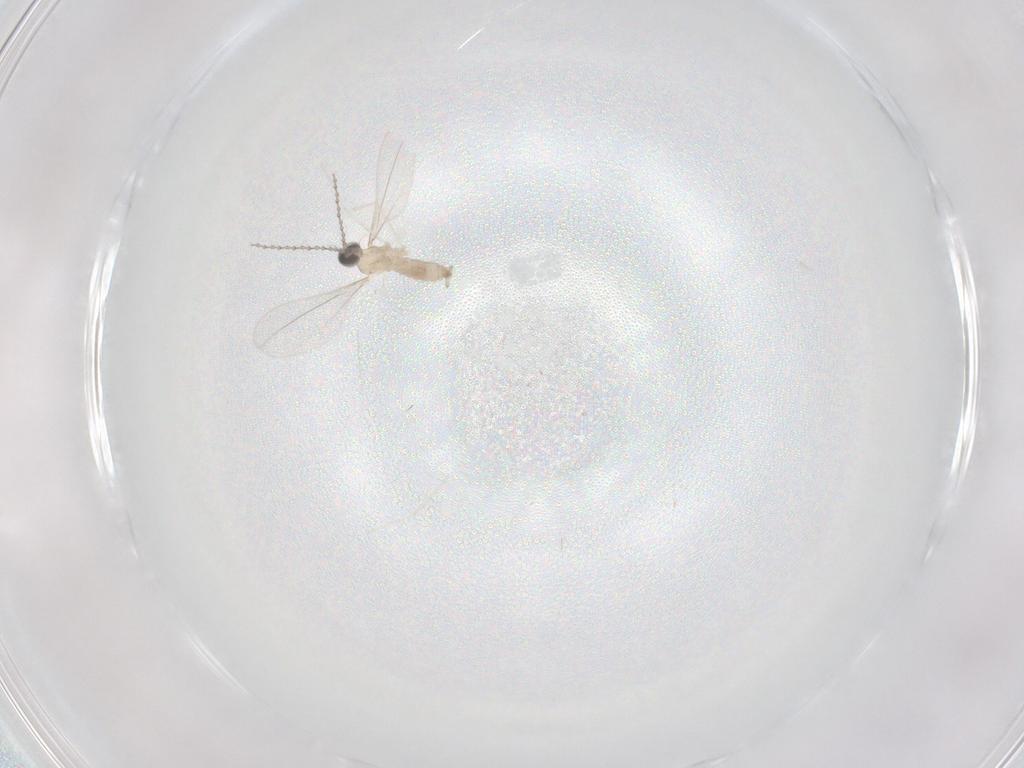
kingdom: Animalia
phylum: Arthropoda
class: Insecta
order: Diptera
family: Cecidomyiidae
